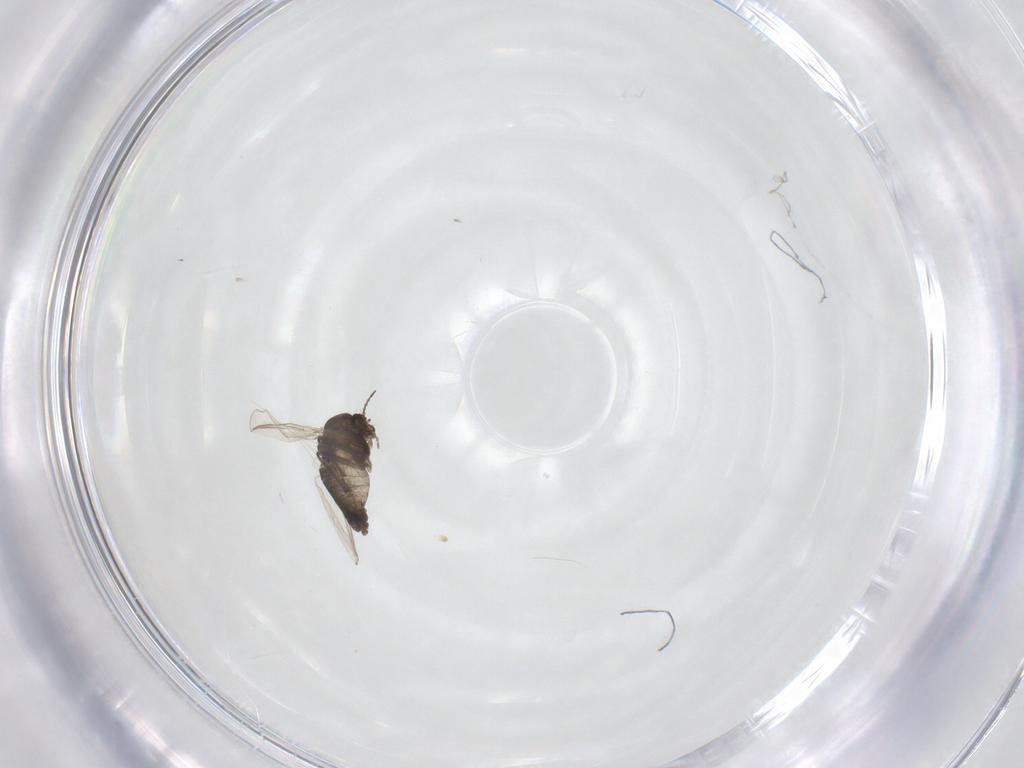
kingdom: Animalia
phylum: Arthropoda
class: Insecta
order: Diptera
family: Chironomidae
